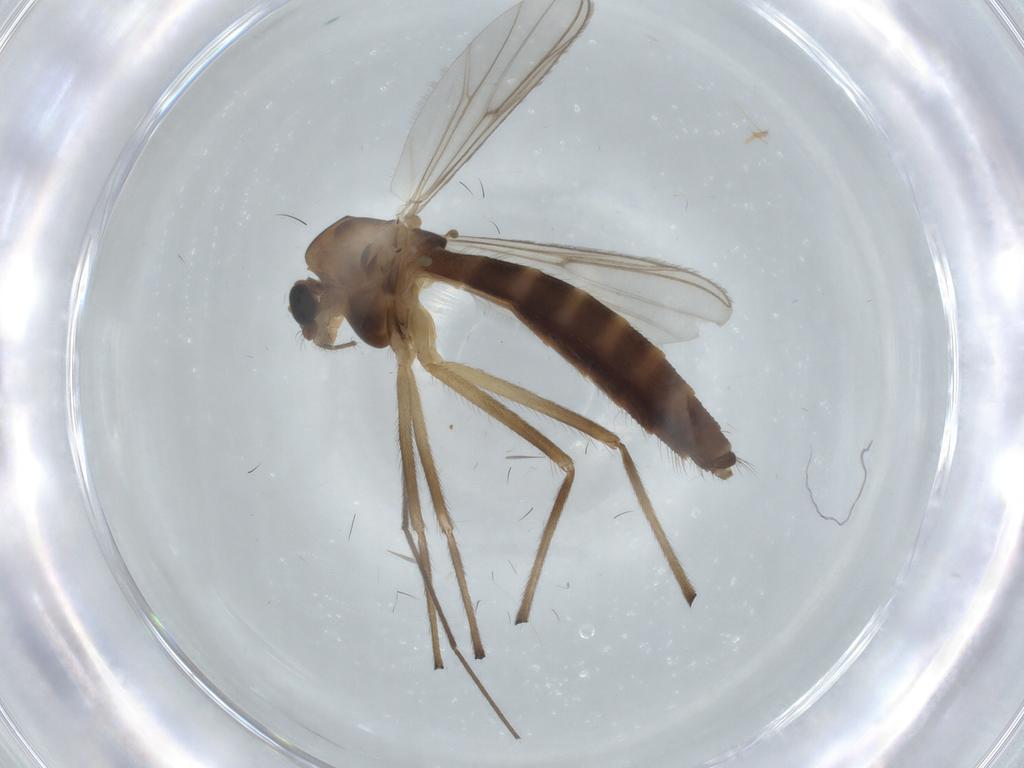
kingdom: Animalia
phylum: Arthropoda
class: Insecta
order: Diptera
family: Chironomidae
